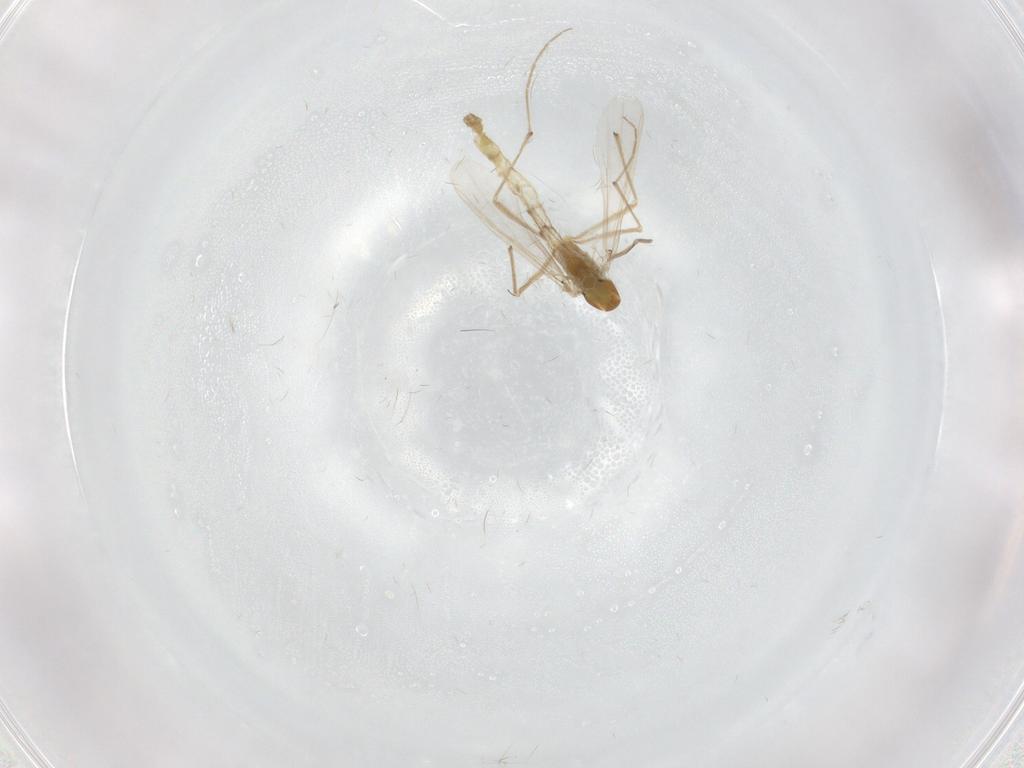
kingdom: Animalia
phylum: Arthropoda
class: Insecta
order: Diptera
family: Chironomidae
